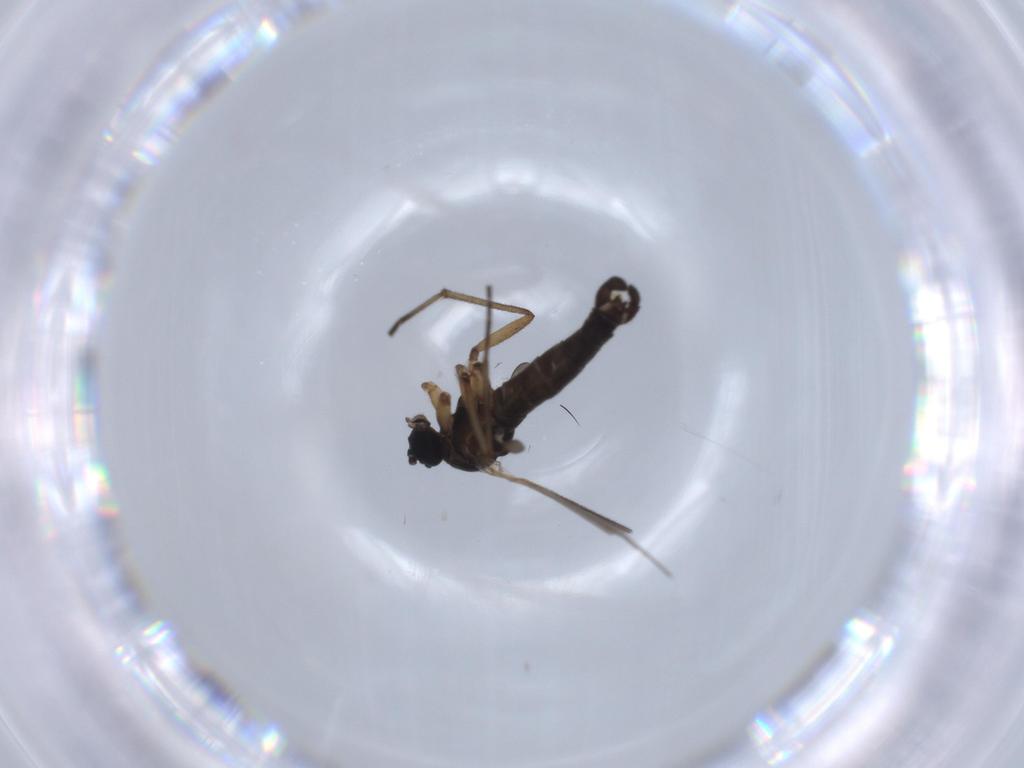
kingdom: Animalia
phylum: Arthropoda
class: Insecta
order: Diptera
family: Sciaridae
